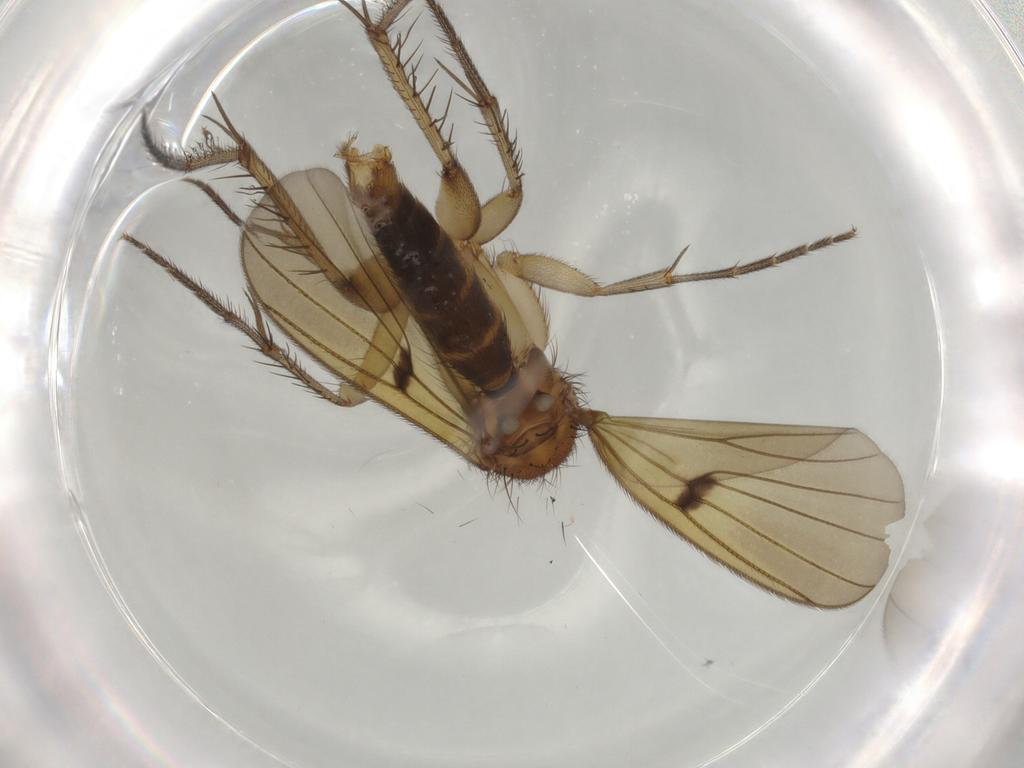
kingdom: Animalia
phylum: Arthropoda
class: Insecta
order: Diptera
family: Mycetophilidae
